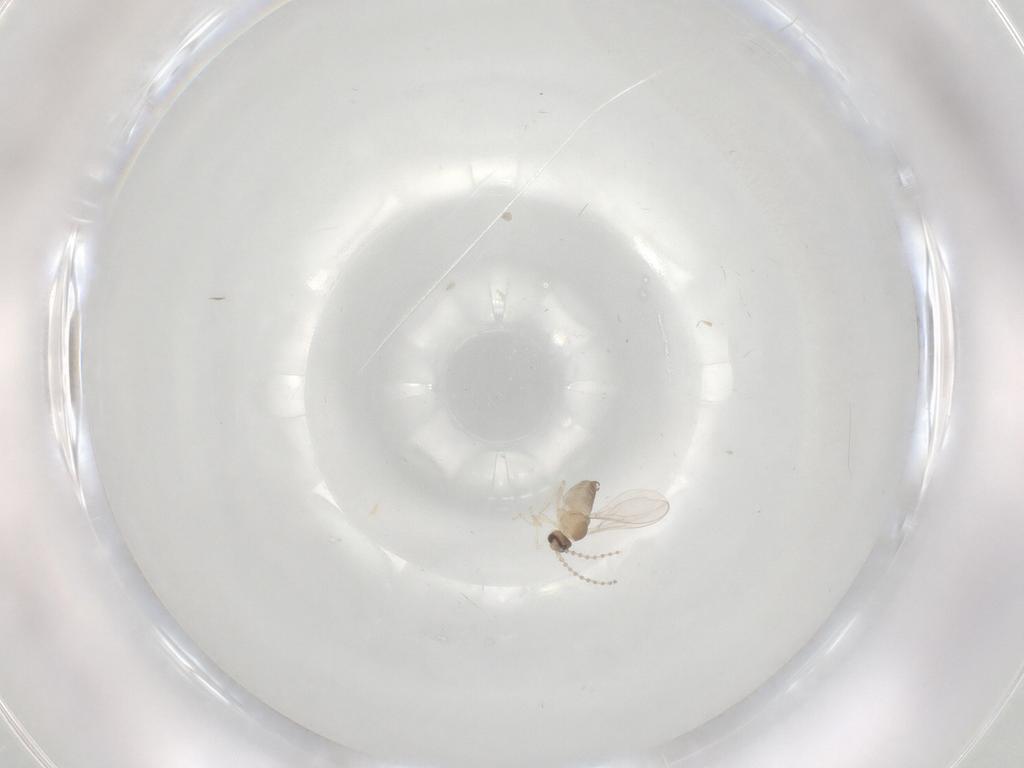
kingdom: Animalia
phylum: Arthropoda
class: Insecta
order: Diptera
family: Cecidomyiidae
